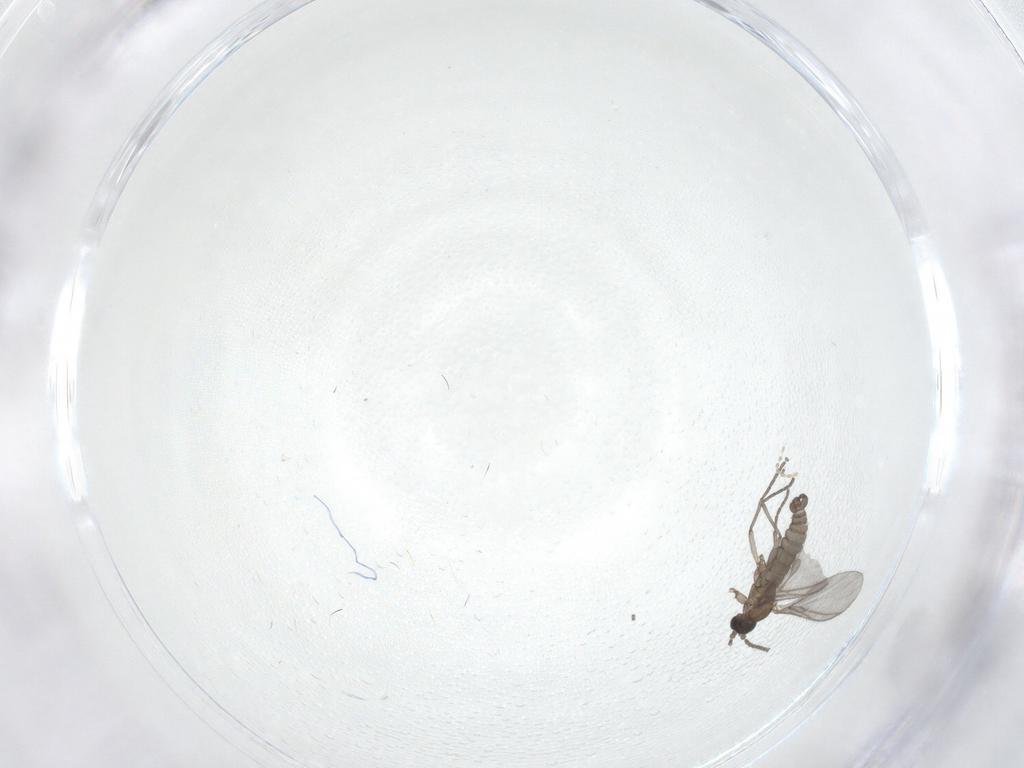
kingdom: Animalia
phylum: Arthropoda
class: Insecta
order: Diptera
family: Sciaridae
